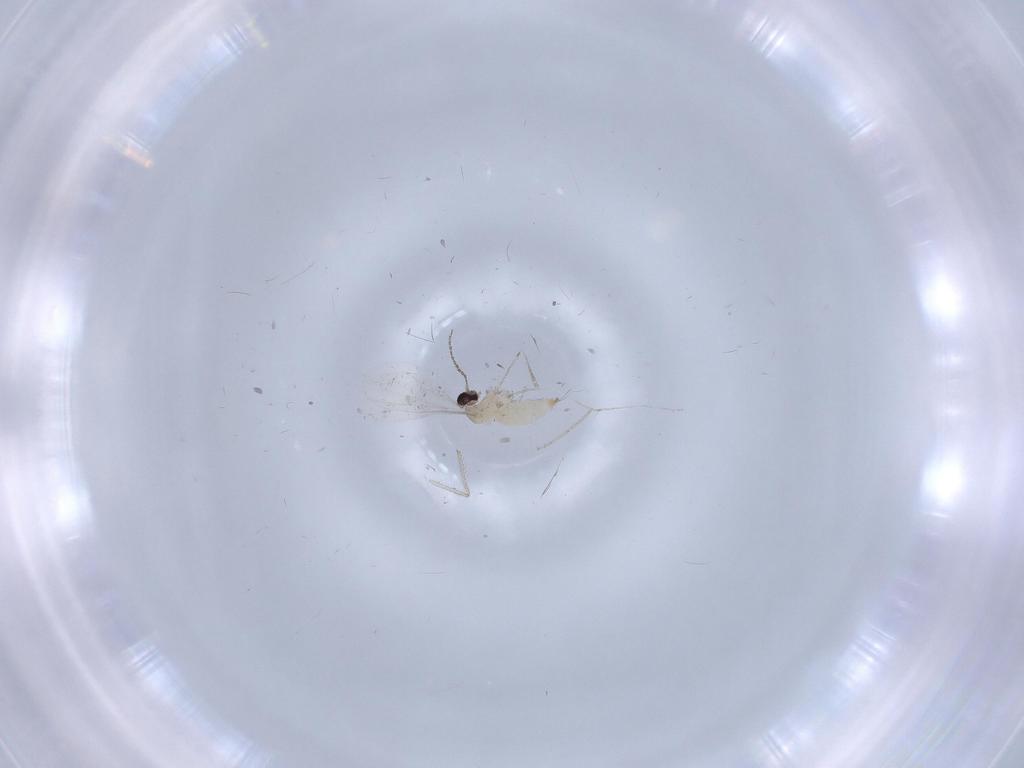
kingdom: Animalia
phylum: Arthropoda
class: Insecta
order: Diptera
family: Cecidomyiidae
